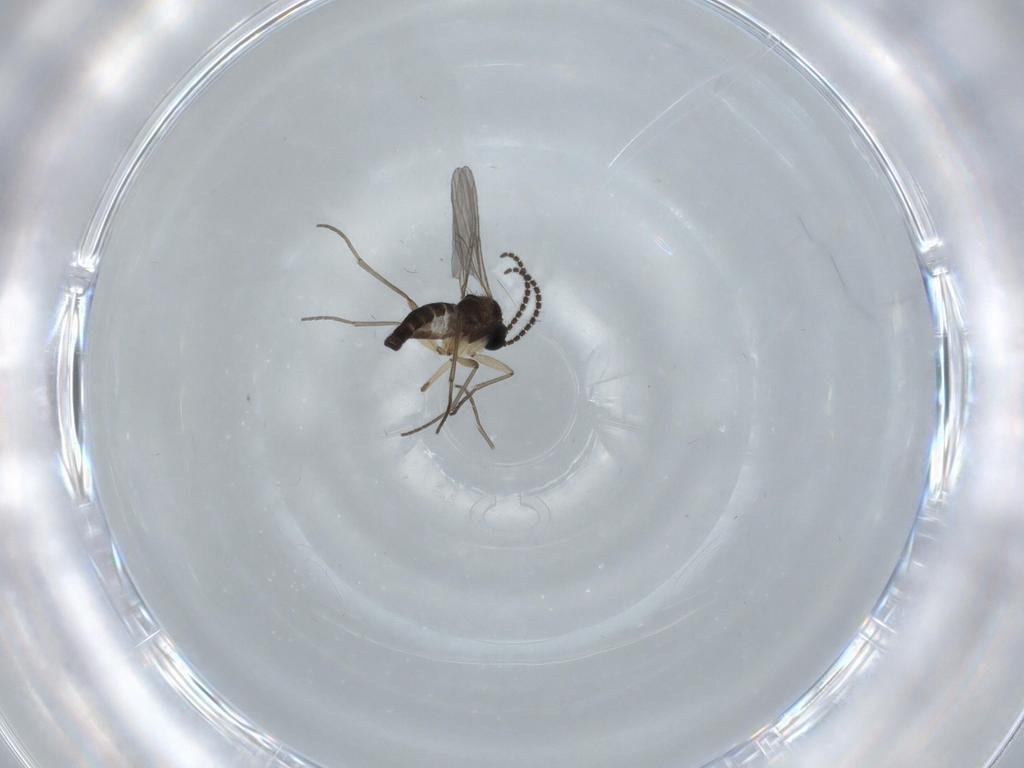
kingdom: Animalia
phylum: Arthropoda
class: Insecta
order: Diptera
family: Sciaridae
